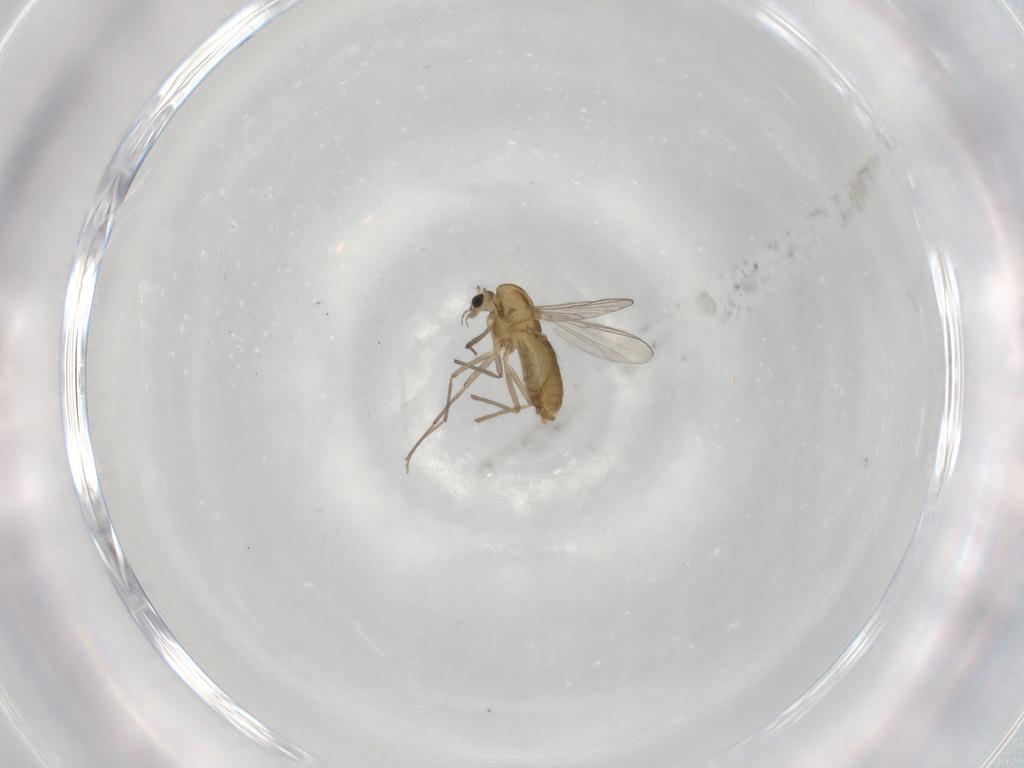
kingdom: Animalia
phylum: Arthropoda
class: Insecta
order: Diptera
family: Chironomidae
